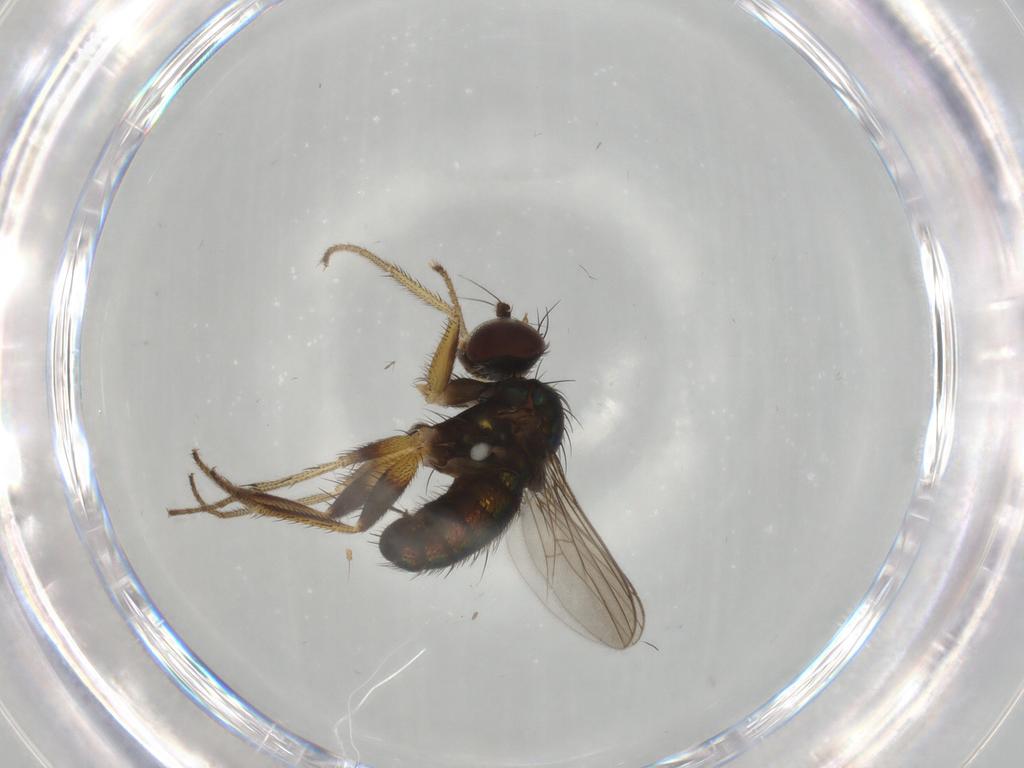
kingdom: Animalia
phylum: Arthropoda
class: Insecta
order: Diptera
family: Dolichopodidae
